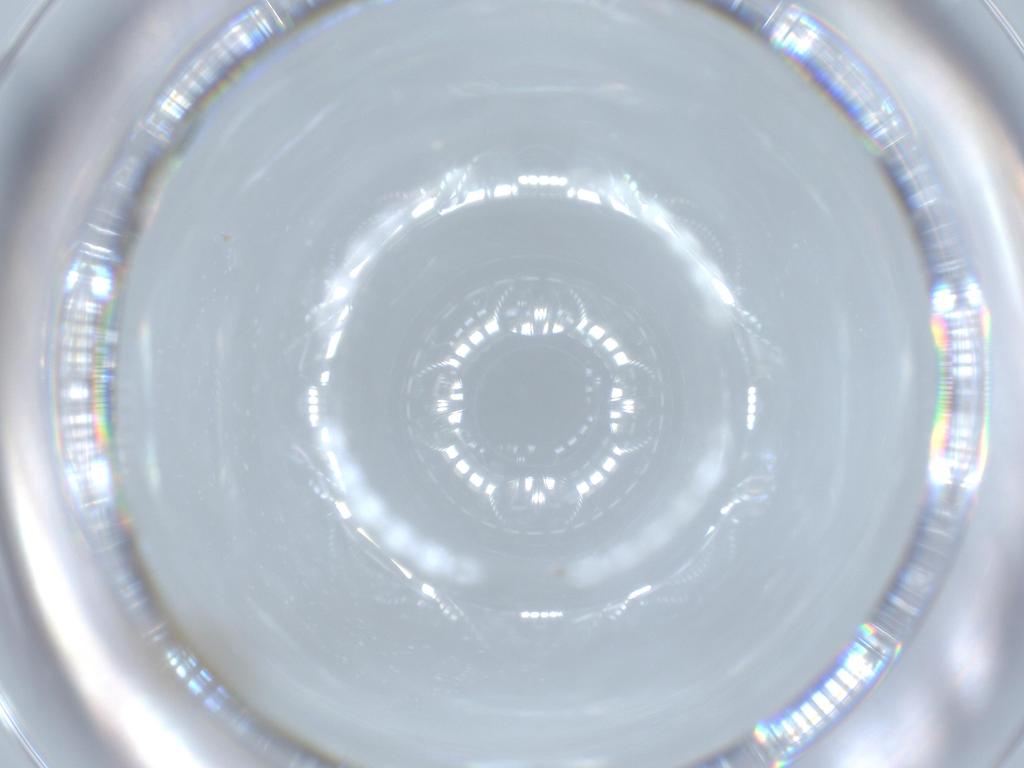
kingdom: Animalia
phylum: Arthropoda
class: Insecta
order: Diptera
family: Cecidomyiidae
